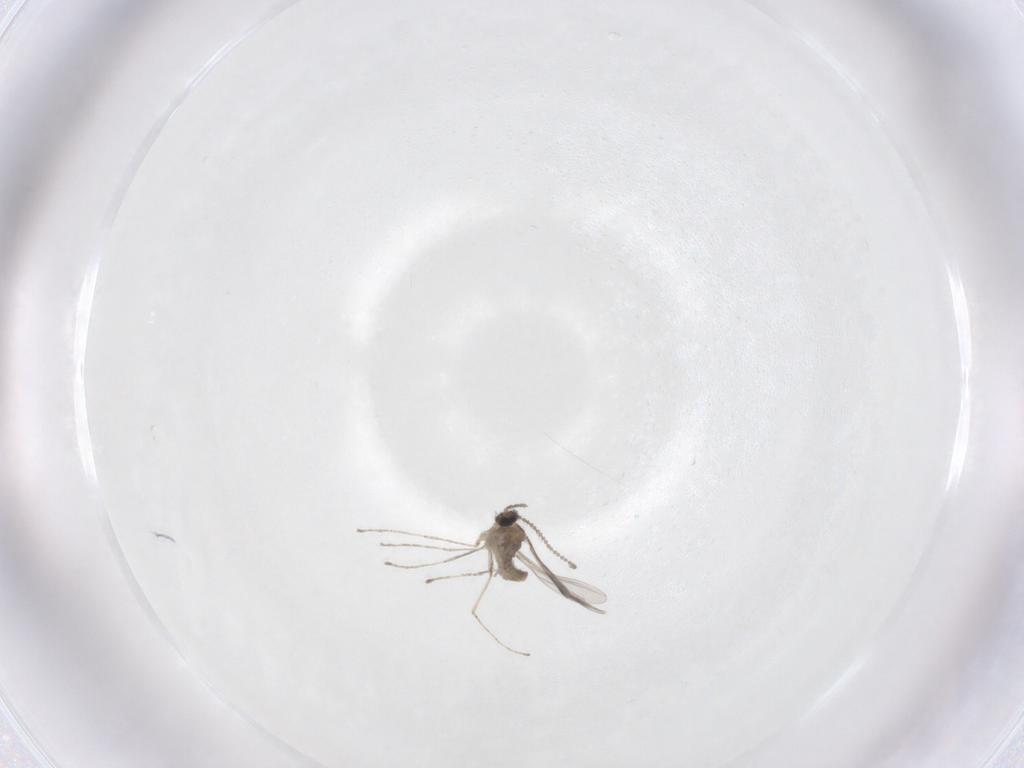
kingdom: Animalia
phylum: Arthropoda
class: Insecta
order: Diptera
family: Cecidomyiidae
